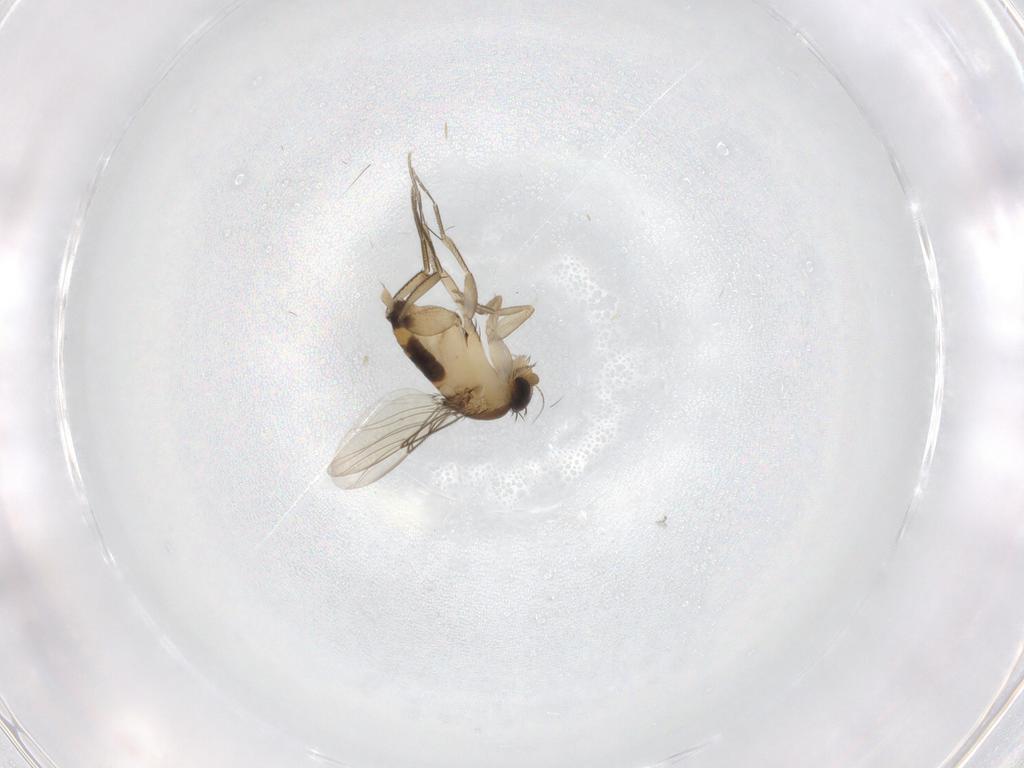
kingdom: Animalia
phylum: Arthropoda
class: Insecta
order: Diptera
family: Phoridae
